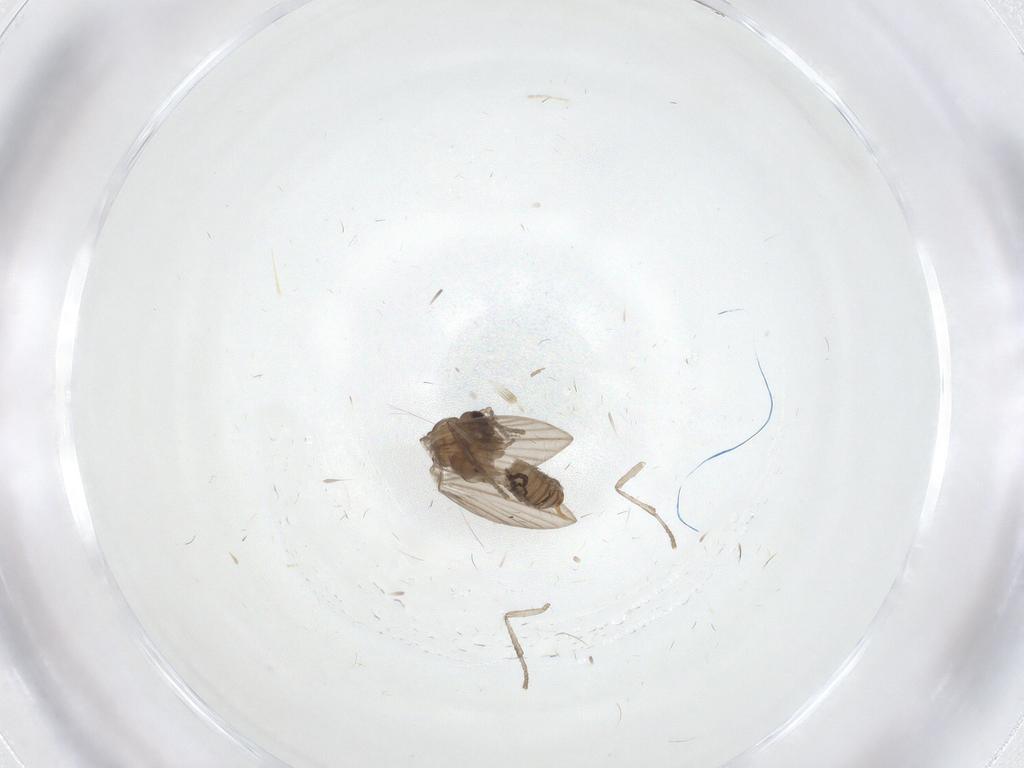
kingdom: Animalia
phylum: Arthropoda
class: Insecta
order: Diptera
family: Psychodidae
